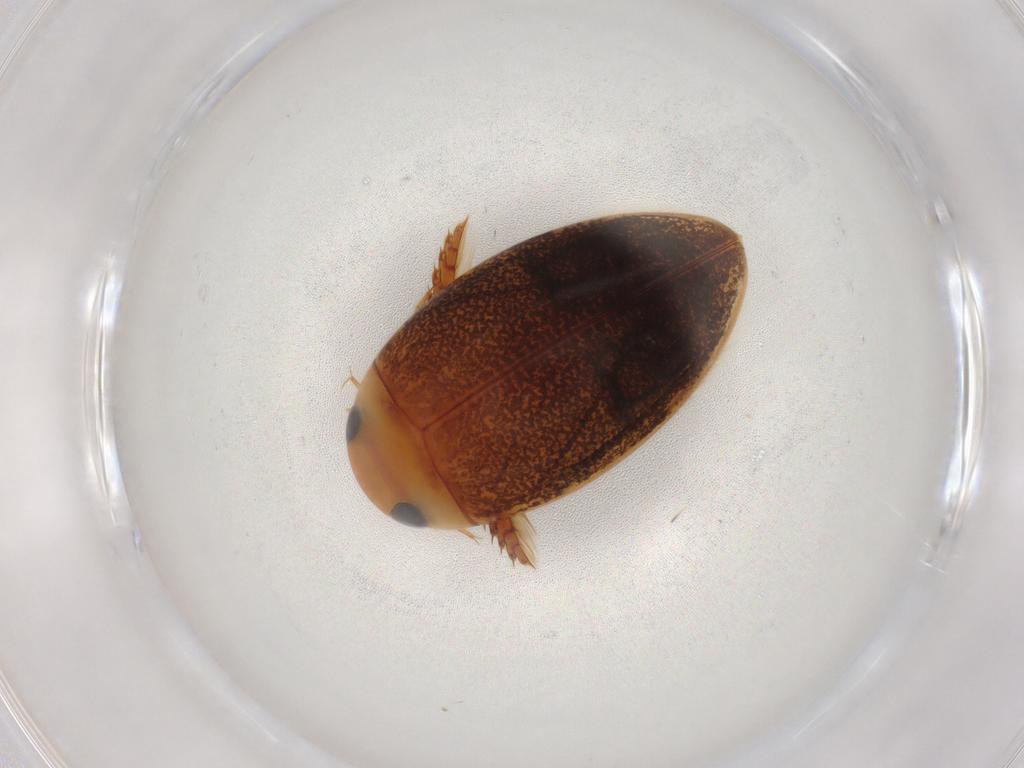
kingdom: Animalia
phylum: Arthropoda
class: Insecta
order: Coleoptera
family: Dytiscidae
